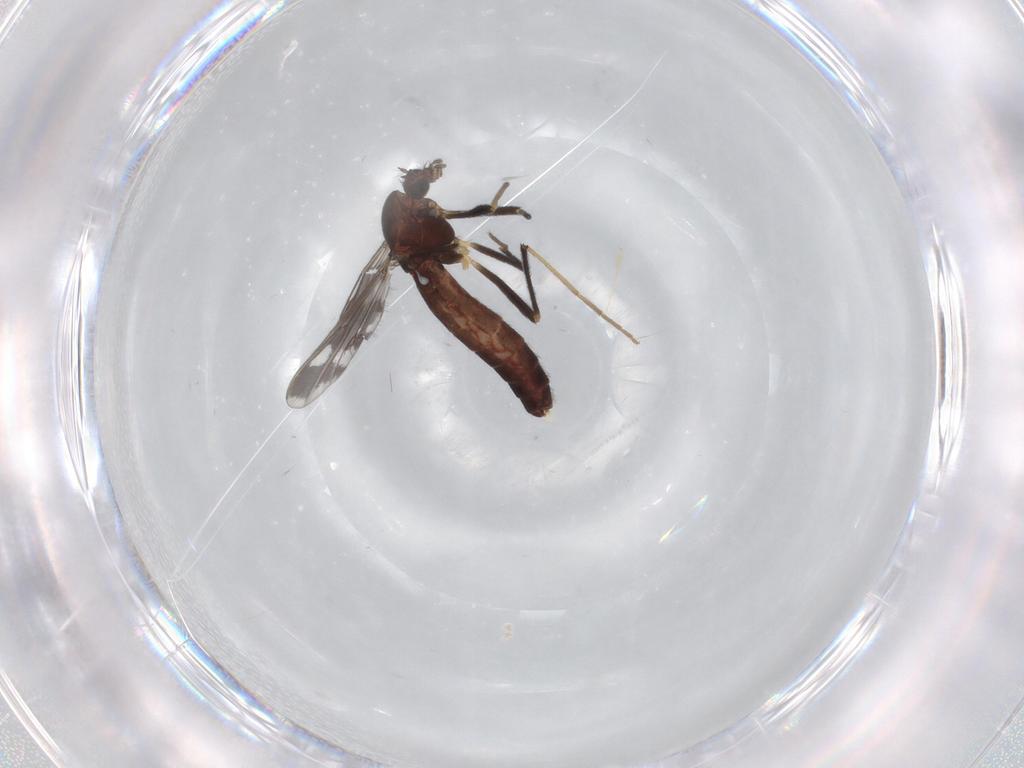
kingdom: Animalia
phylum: Arthropoda
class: Insecta
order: Diptera
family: Chironomidae
